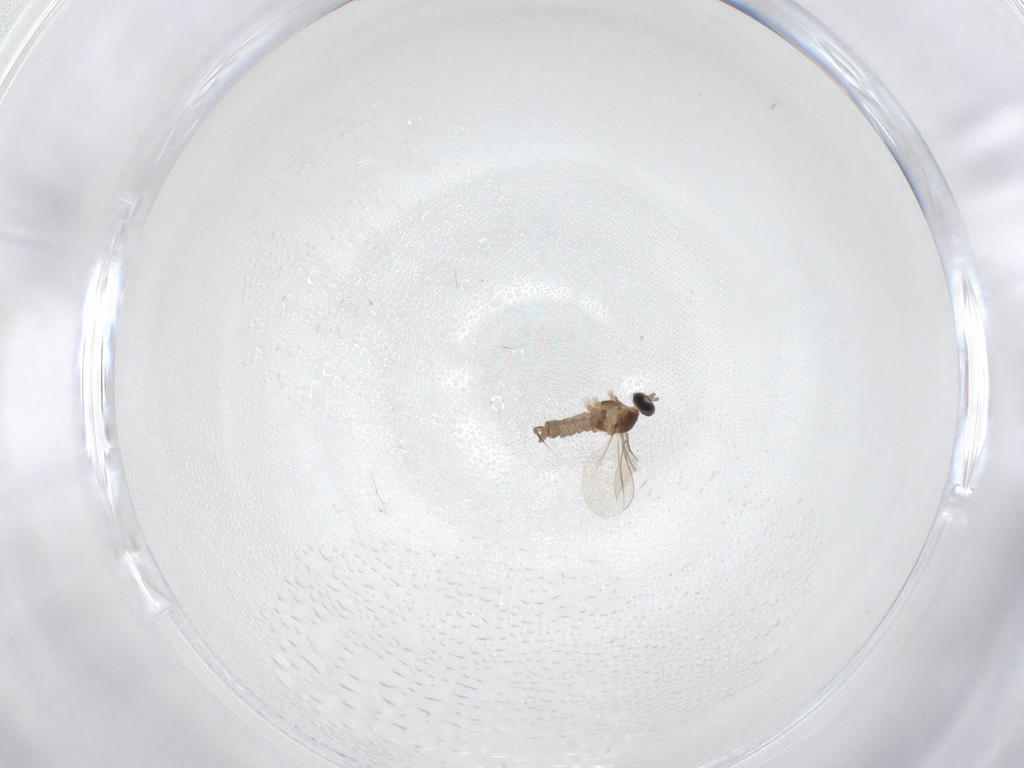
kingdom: Animalia
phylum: Arthropoda
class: Insecta
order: Diptera
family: Cecidomyiidae
